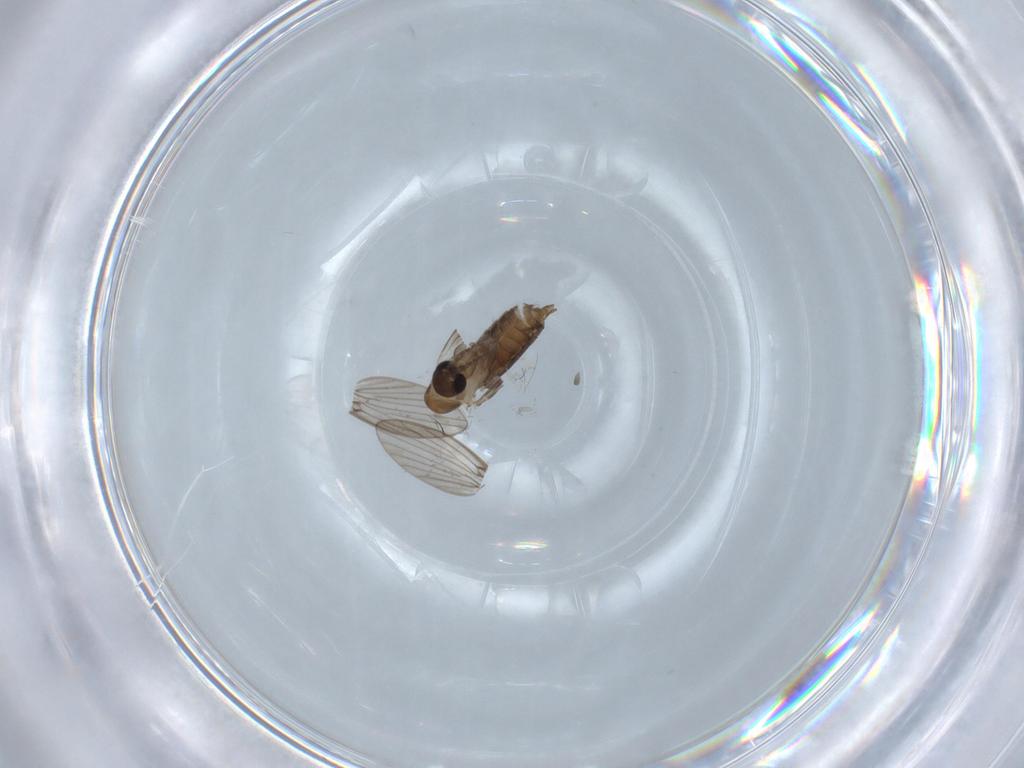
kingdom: Animalia
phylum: Arthropoda
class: Insecta
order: Diptera
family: Psychodidae
